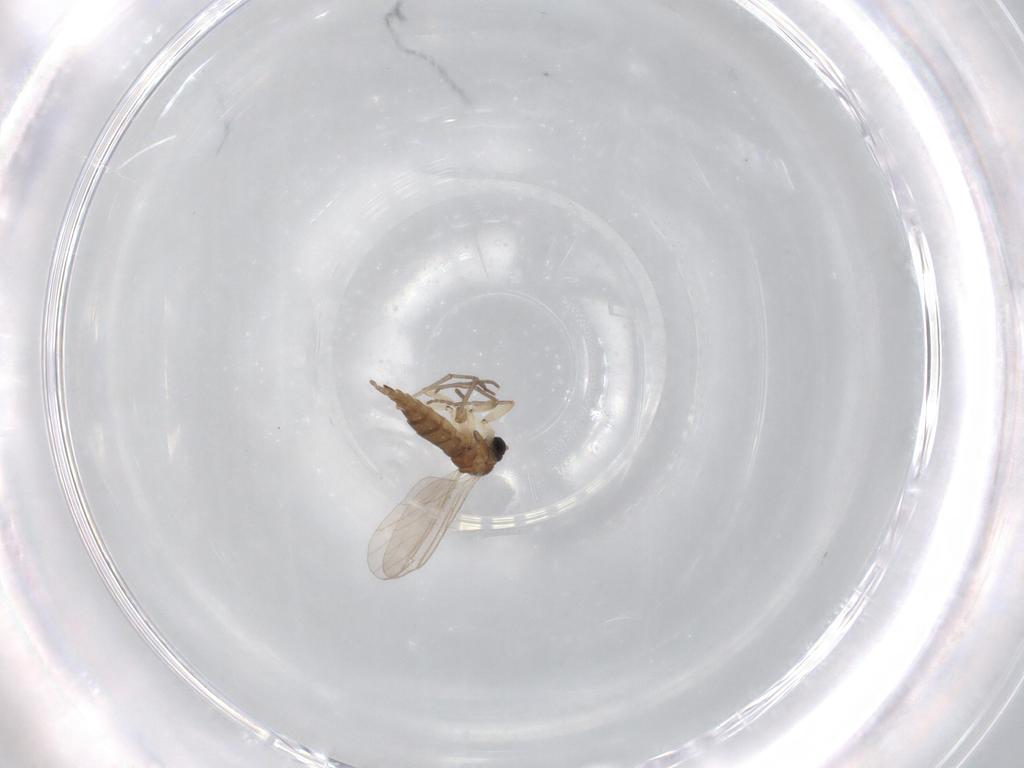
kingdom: Animalia
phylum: Arthropoda
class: Insecta
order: Diptera
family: Sciaridae
